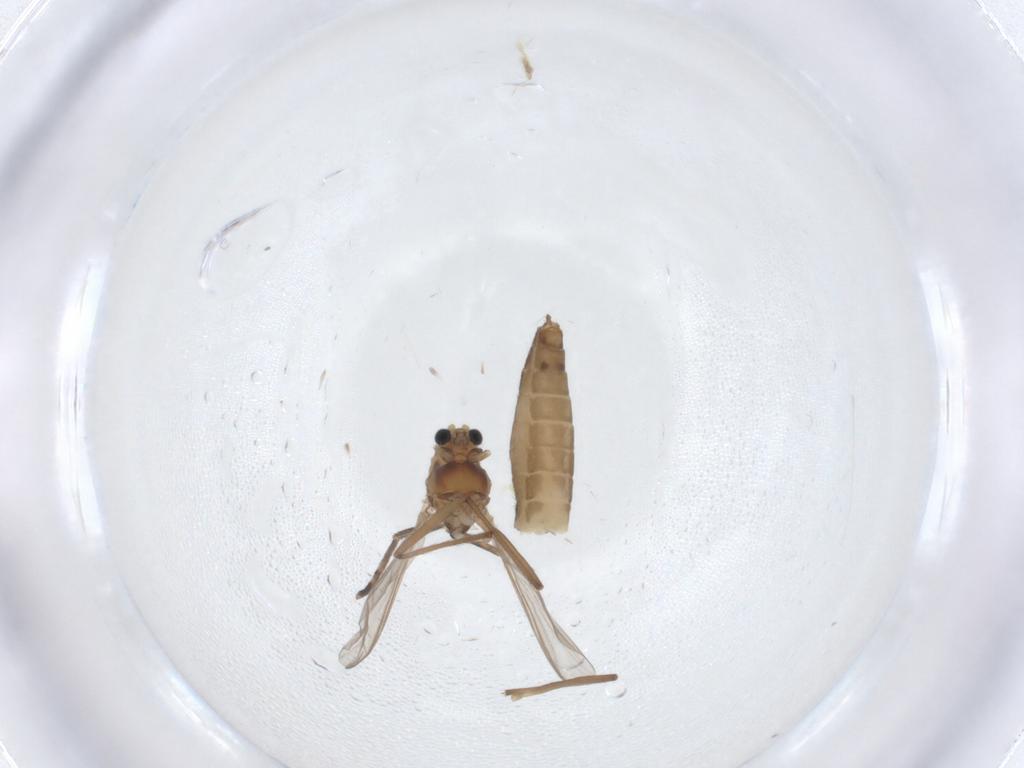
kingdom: Animalia
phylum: Arthropoda
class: Insecta
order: Diptera
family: Chironomidae
